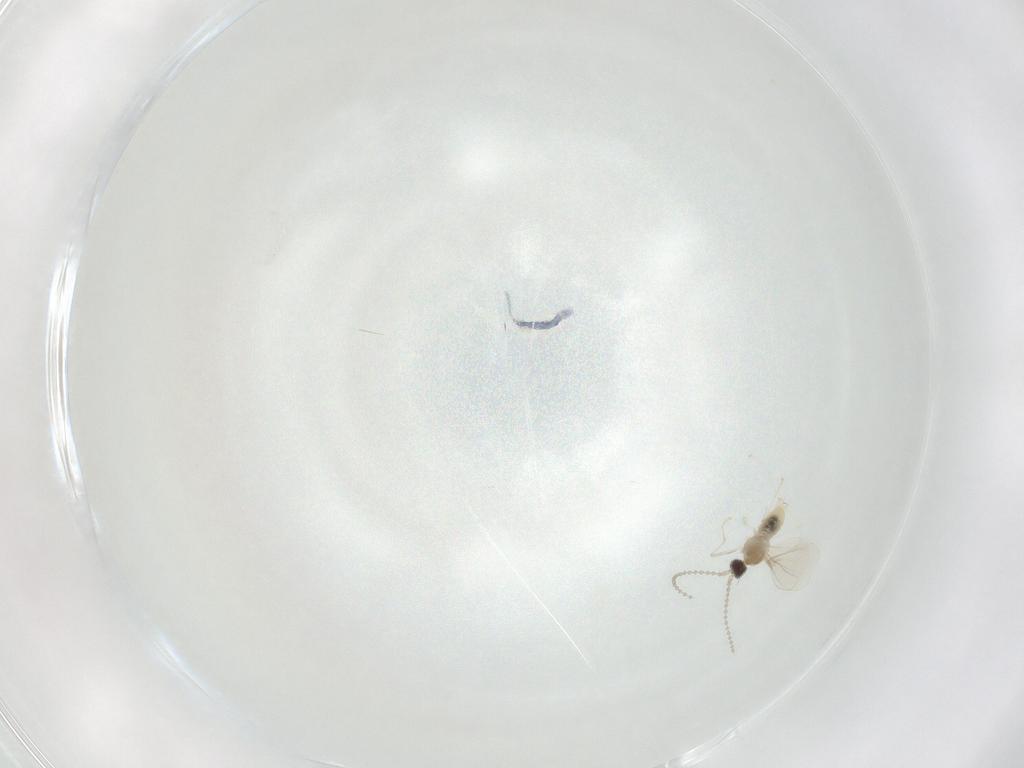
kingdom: Animalia
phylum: Arthropoda
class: Insecta
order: Diptera
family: Cecidomyiidae
